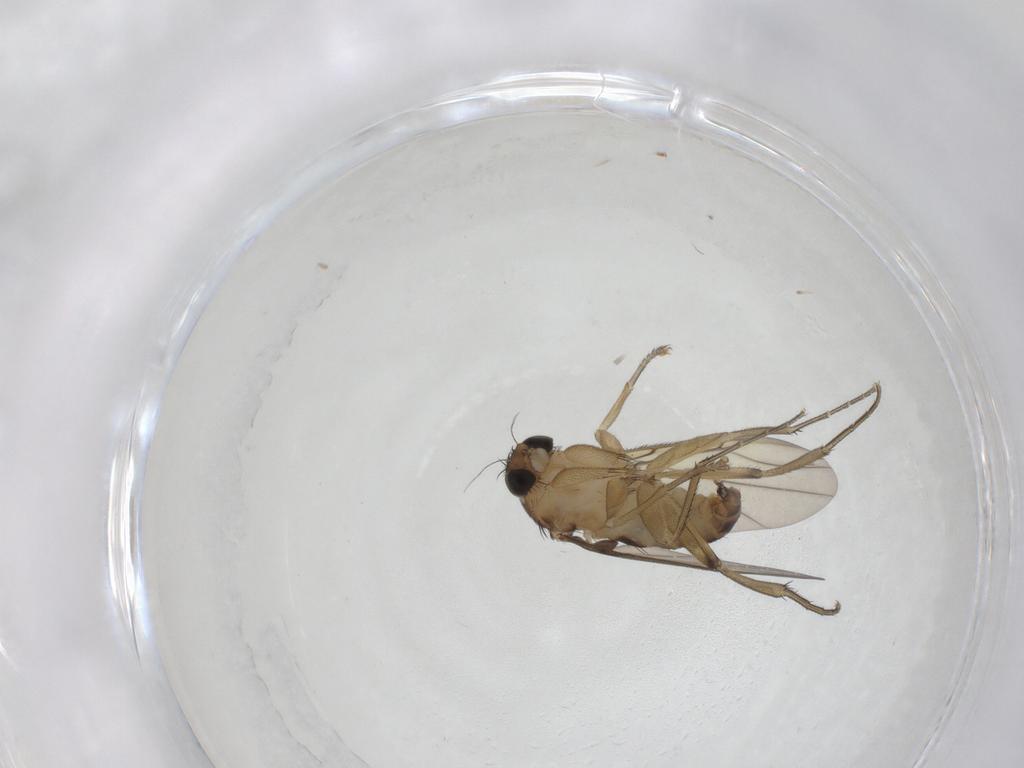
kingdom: Animalia
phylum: Arthropoda
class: Insecta
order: Diptera
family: Phoridae
